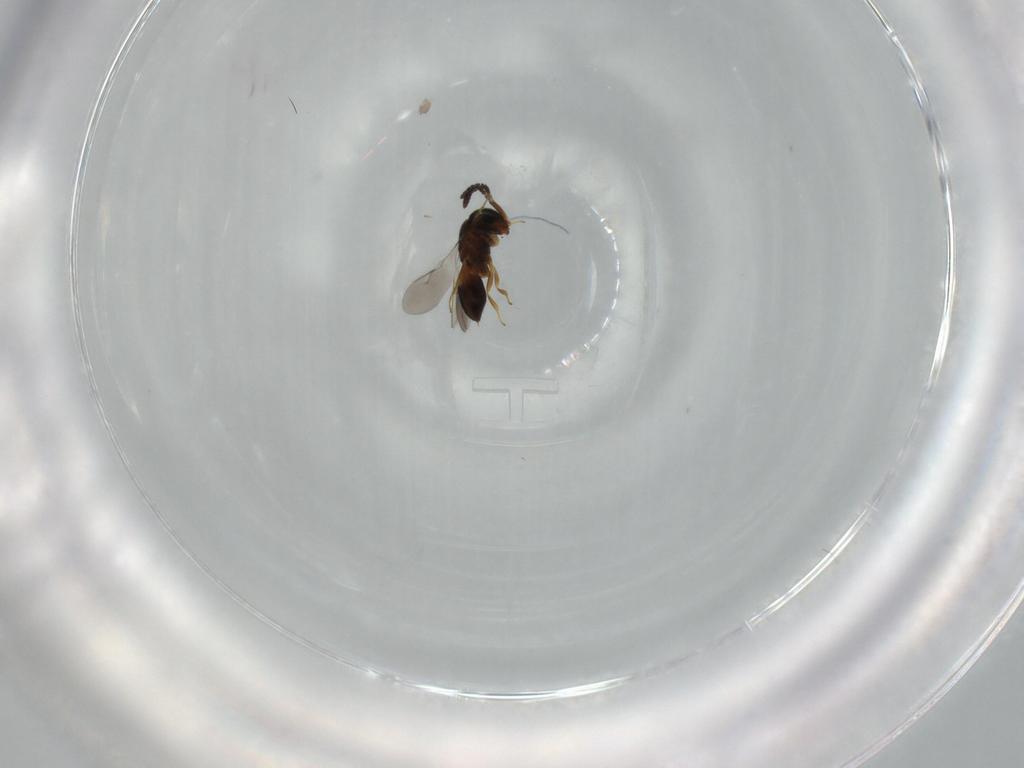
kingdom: Animalia
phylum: Arthropoda
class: Insecta
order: Hymenoptera
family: Scelionidae
